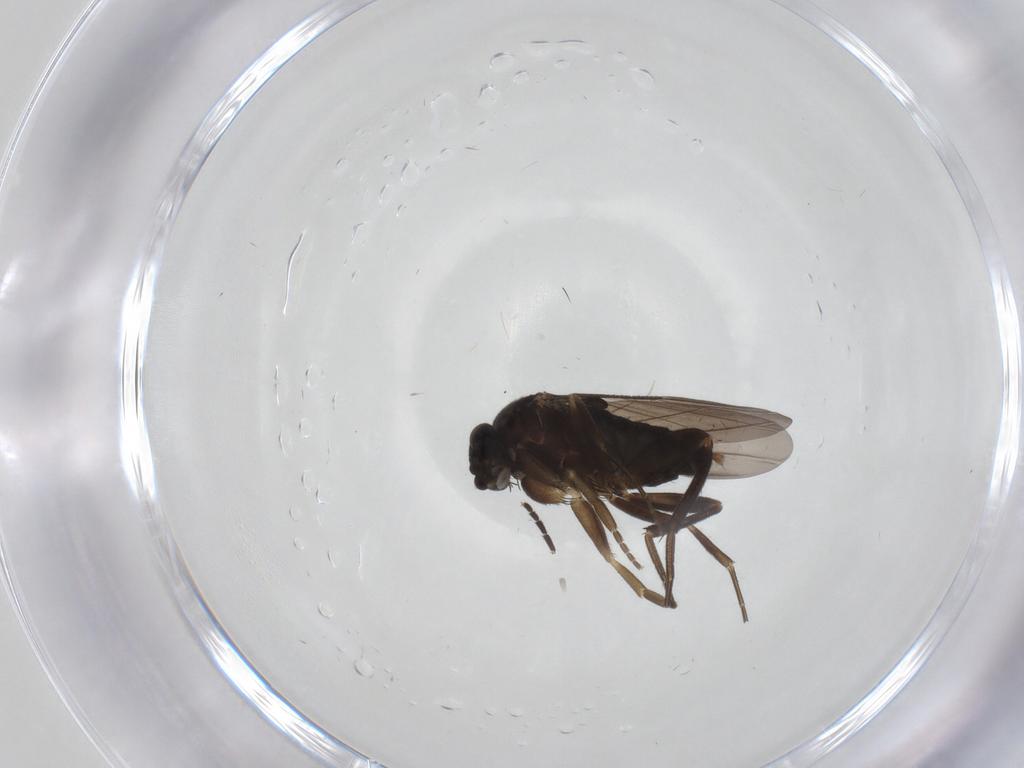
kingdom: Animalia
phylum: Arthropoda
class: Insecta
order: Diptera
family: Phoridae
